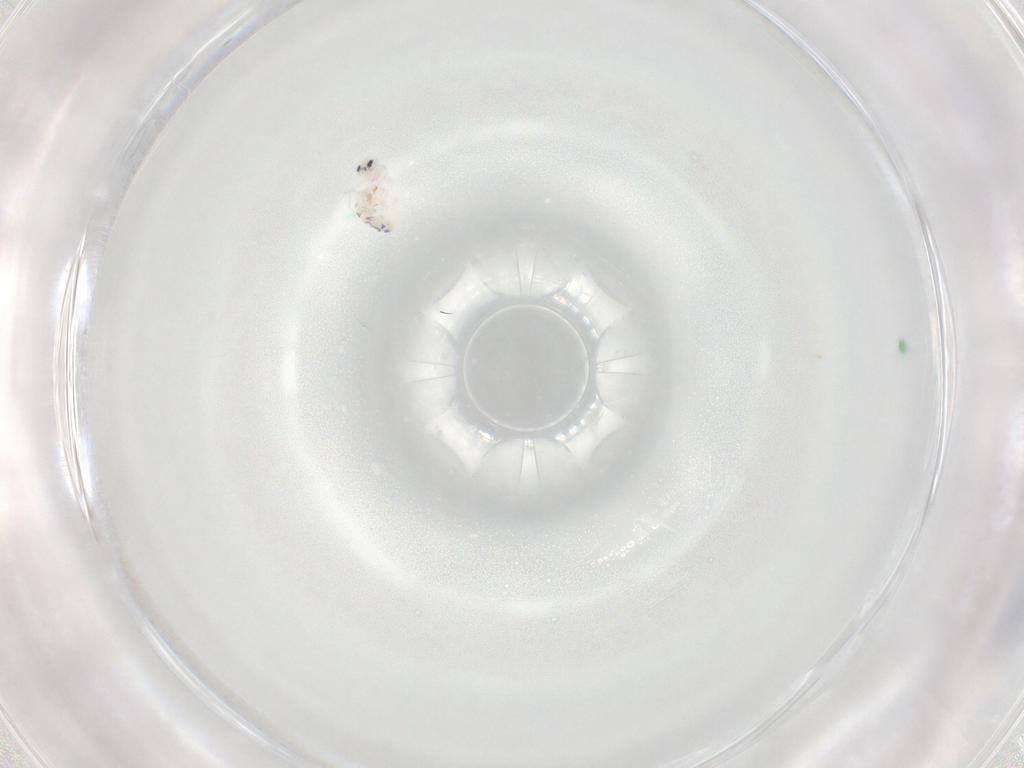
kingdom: Animalia
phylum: Arthropoda
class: Collembola
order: Entomobryomorpha
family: Entomobryidae
